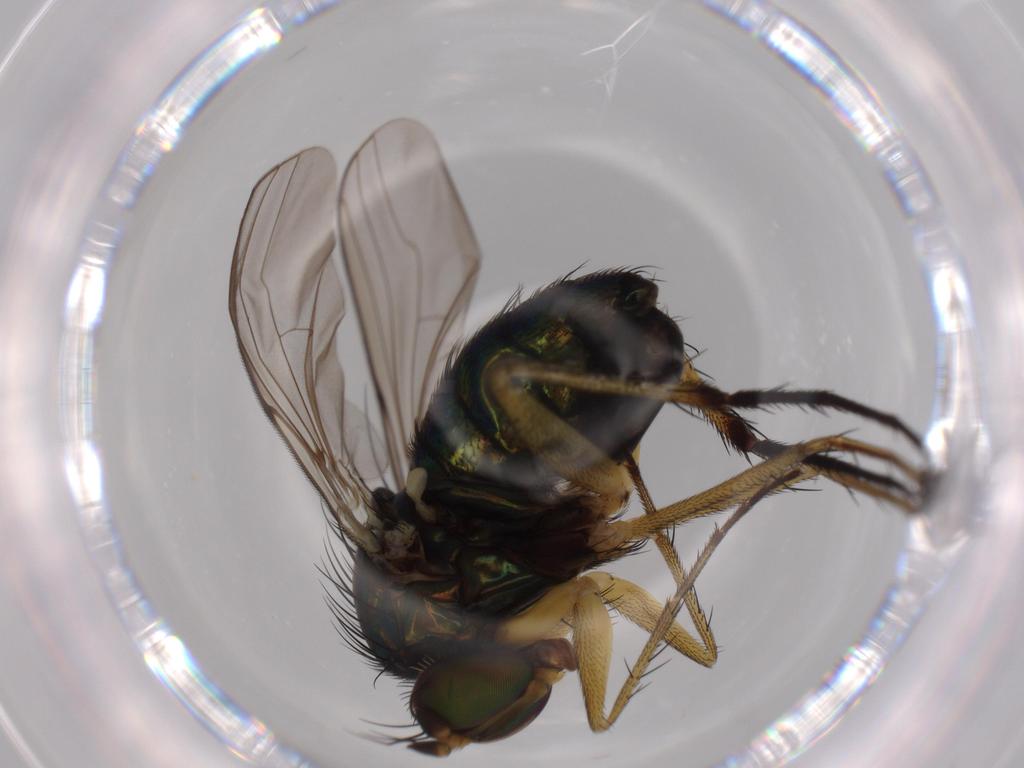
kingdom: Animalia
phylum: Arthropoda
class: Insecta
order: Diptera
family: Dolichopodidae
